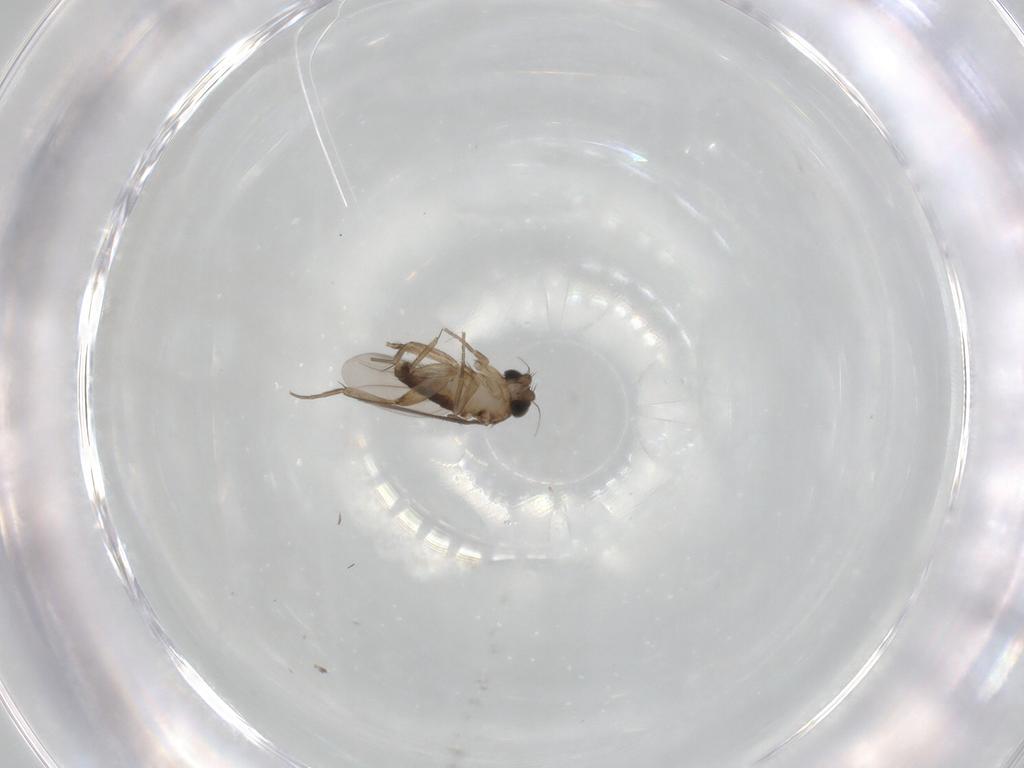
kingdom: Animalia
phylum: Arthropoda
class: Insecta
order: Diptera
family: Phoridae
